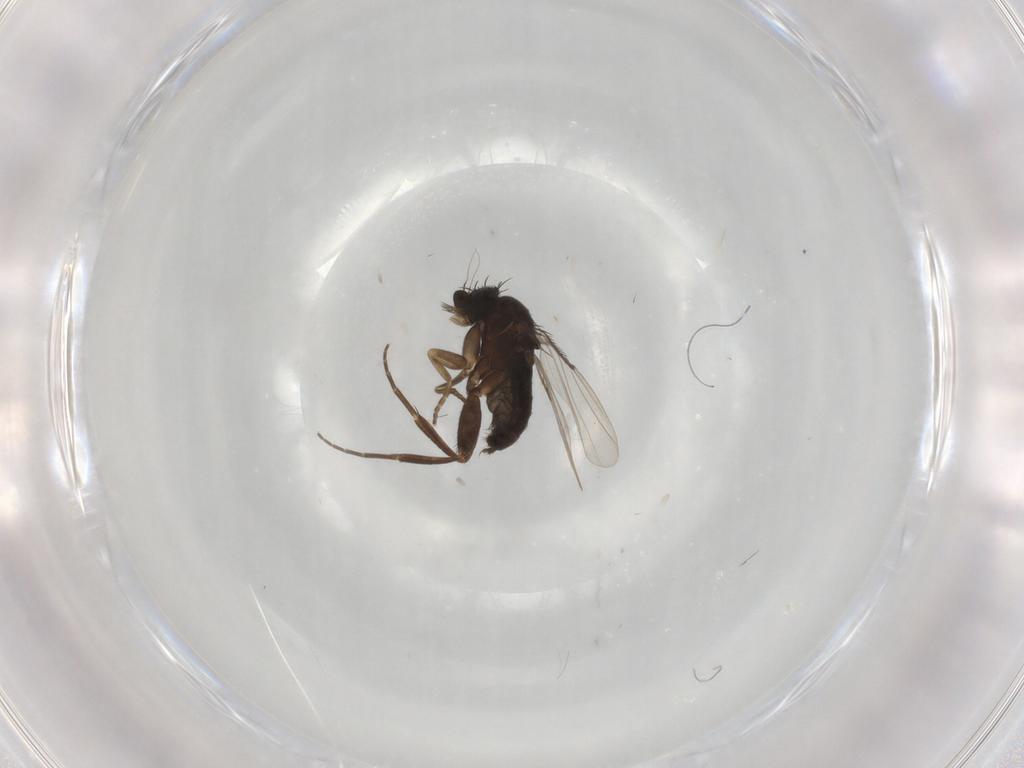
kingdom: Animalia
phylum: Arthropoda
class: Insecta
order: Diptera
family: Phoridae
